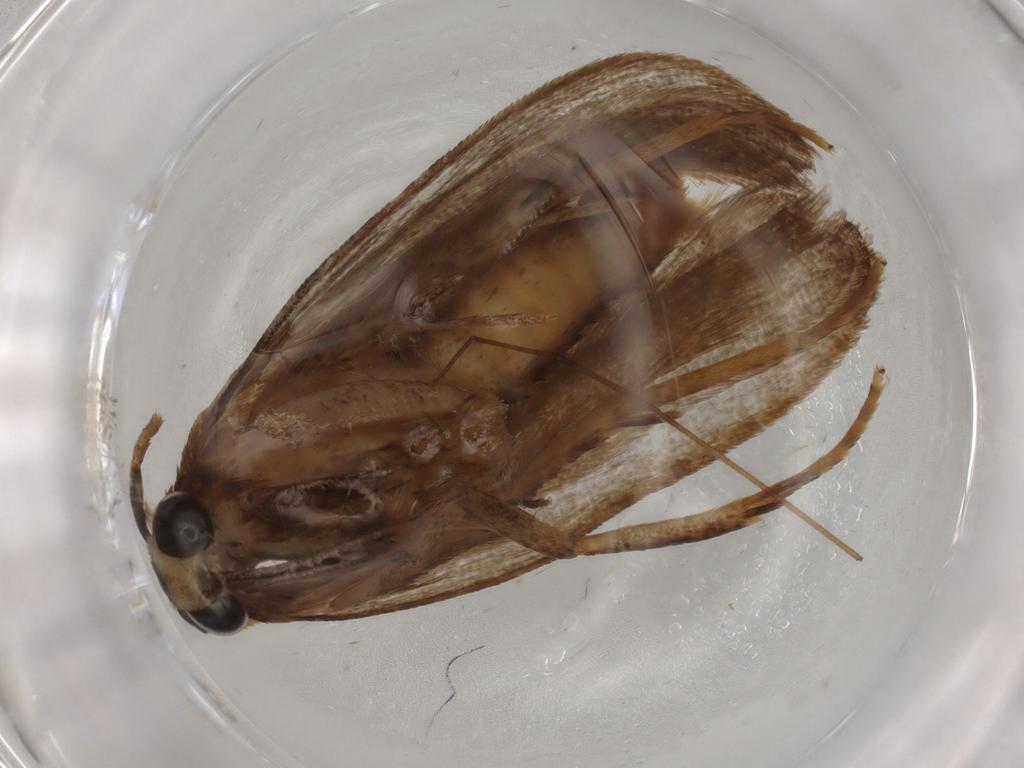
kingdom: Animalia
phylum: Arthropoda
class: Insecta
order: Lepidoptera
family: Autostichidae
